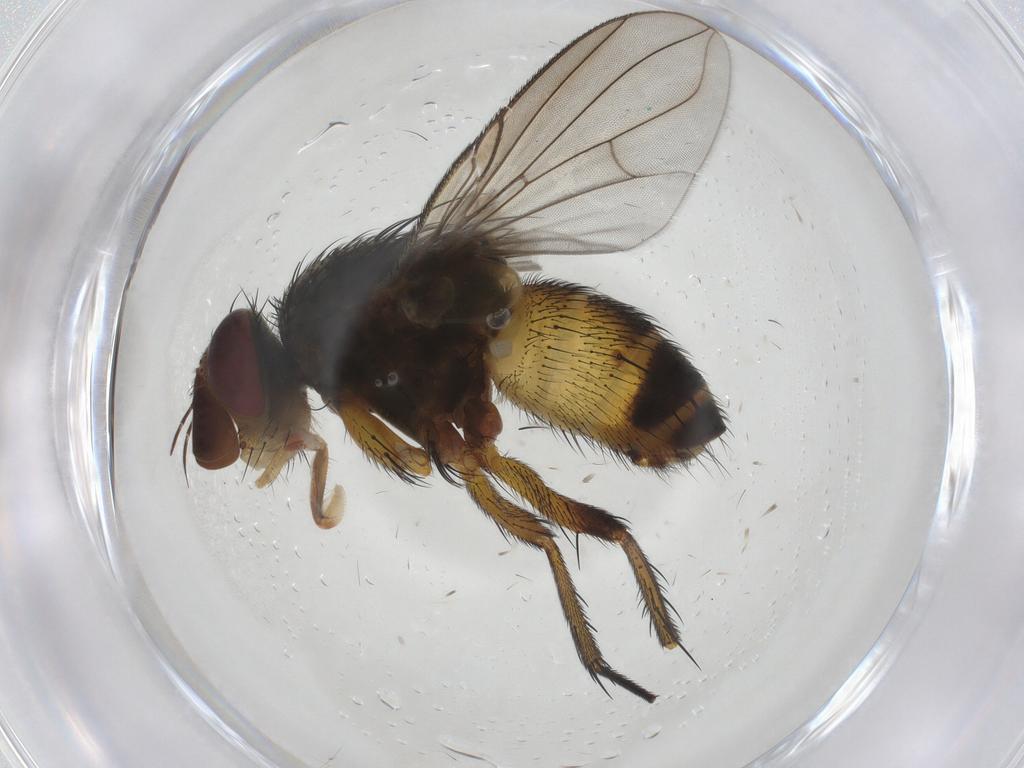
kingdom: Animalia
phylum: Arthropoda
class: Insecta
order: Diptera
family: Tachinidae
